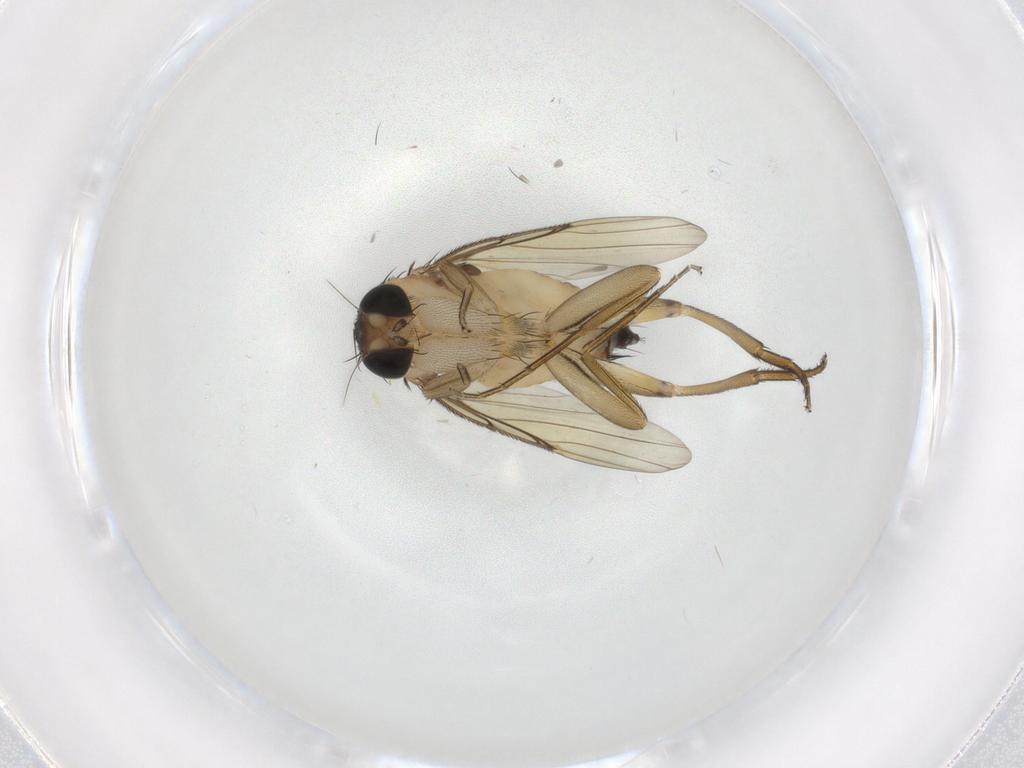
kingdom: Animalia
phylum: Arthropoda
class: Insecta
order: Diptera
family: Phoridae
